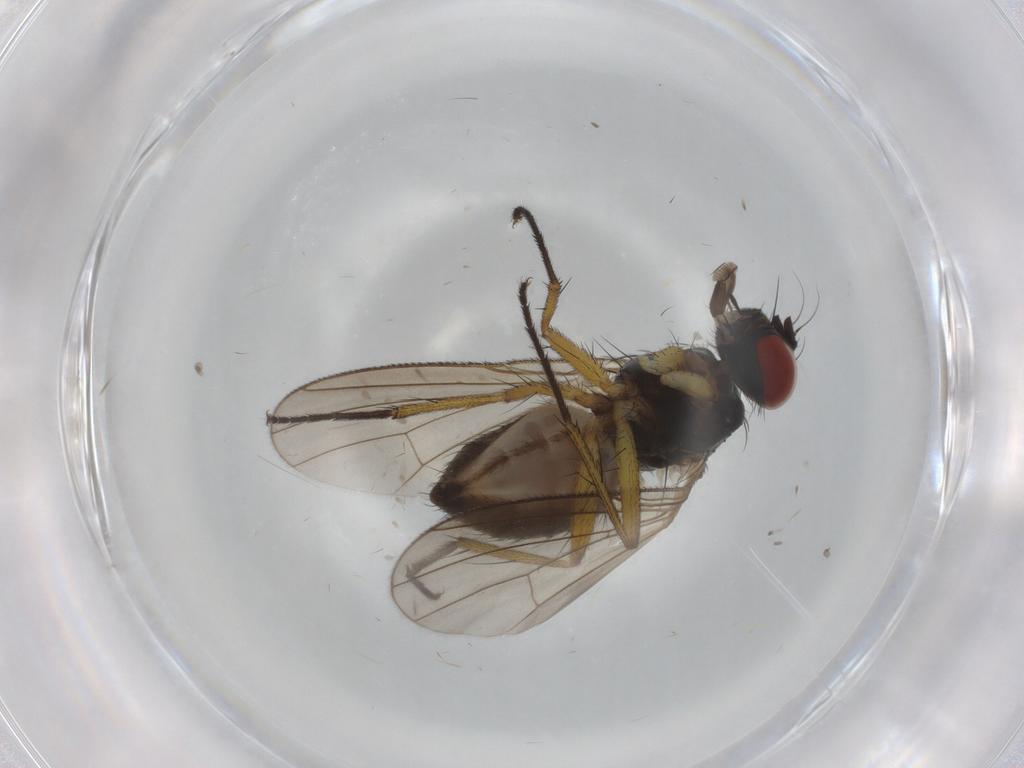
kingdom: Animalia
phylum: Arthropoda
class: Insecta
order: Diptera
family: Muscidae
